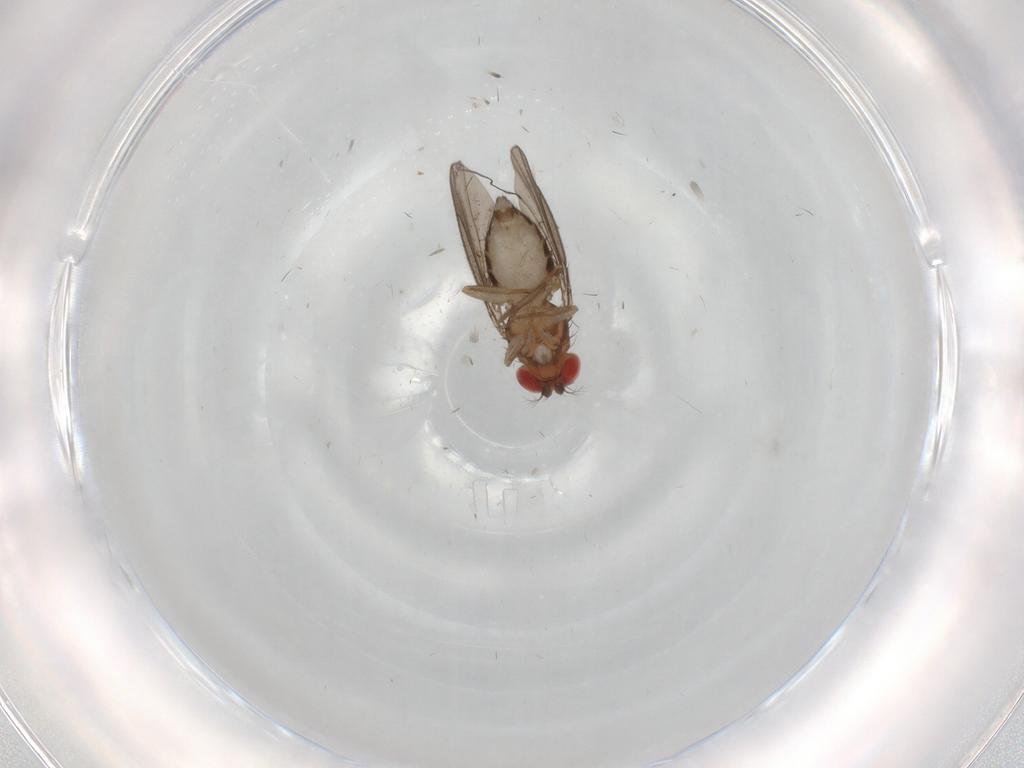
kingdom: Animalia
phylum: Arthropoda
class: Insecta
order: Diptera
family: Drosophilidae
